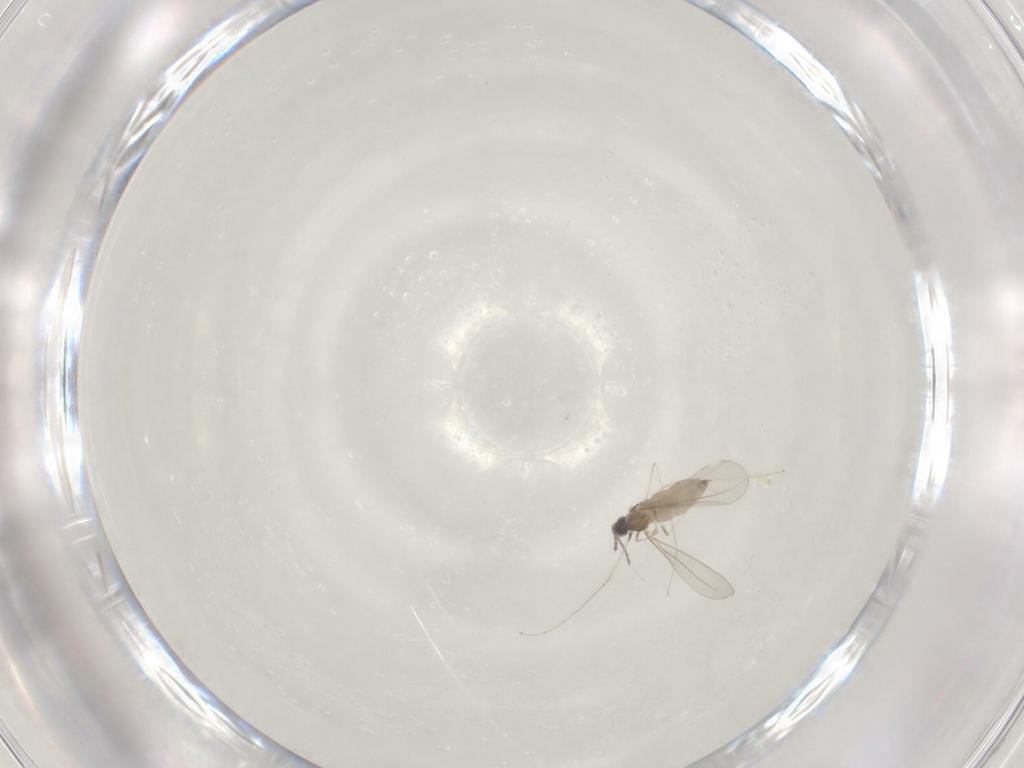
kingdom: Animalia
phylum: Arthropoda
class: Insecta
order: Diptera
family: Cecidomyiidae
